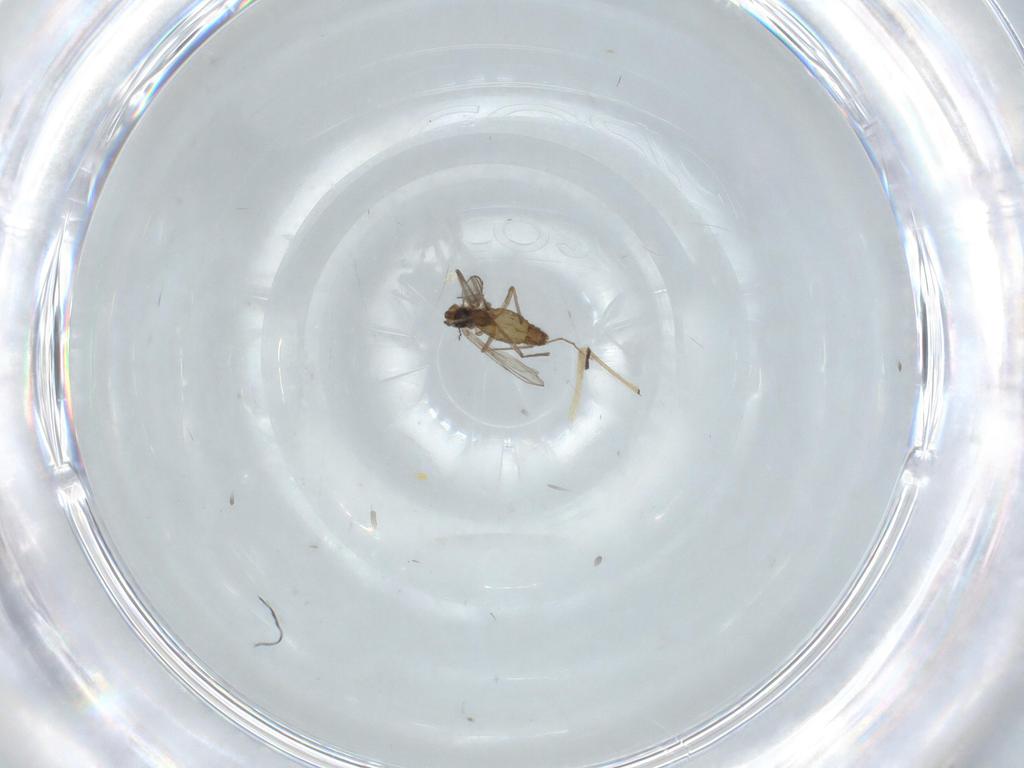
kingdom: Animalia
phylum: Arthropoda
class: Insecta
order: Diptera
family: Chironomidae
